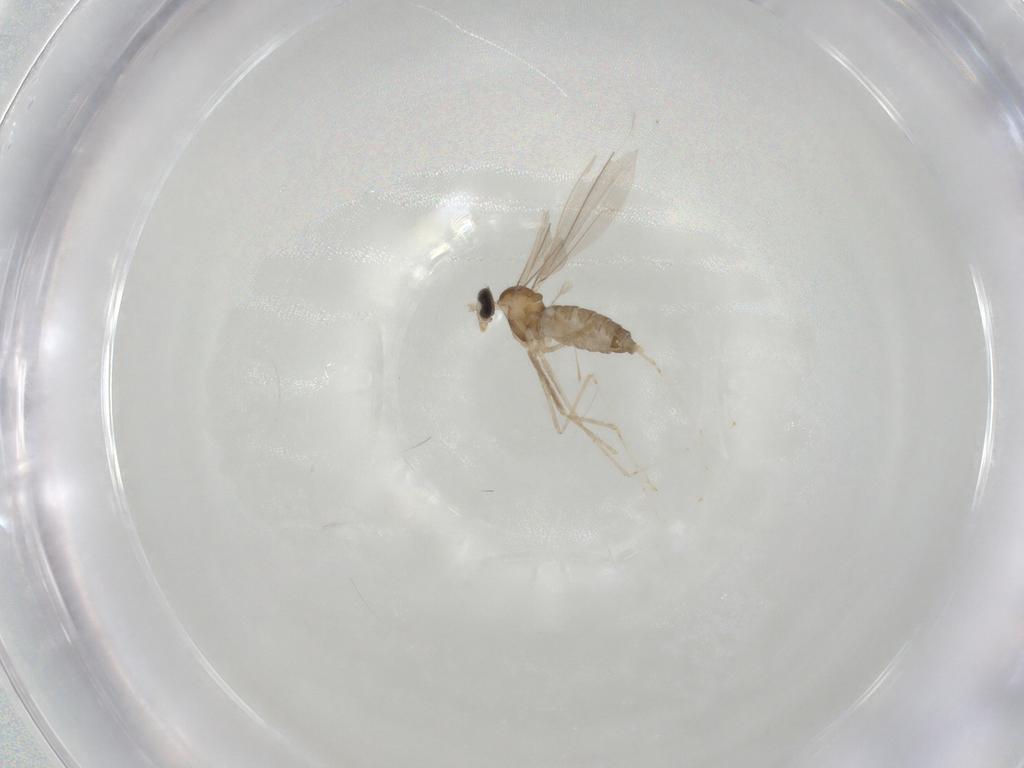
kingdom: Animalia
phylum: Arthropoda
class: Insecta
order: Diptera
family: Cecidomyiidae
